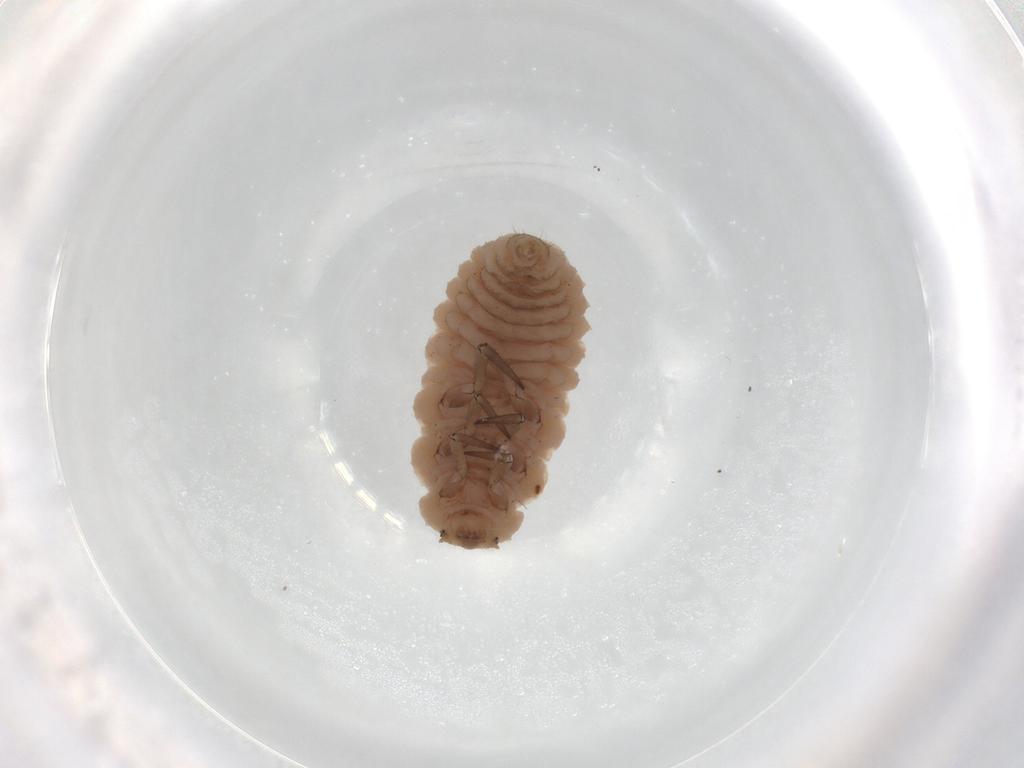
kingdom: Animalia
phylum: Arthropoda
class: Insecta
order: Coleoptera
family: Coccinellidae
